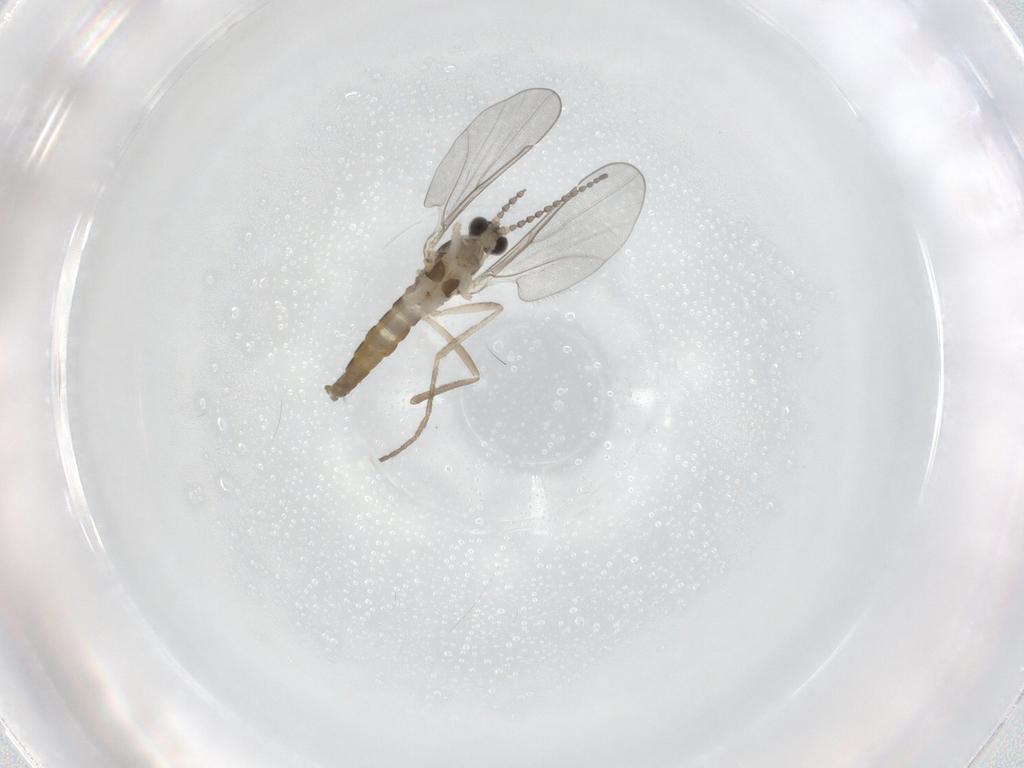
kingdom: Animalia
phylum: Arthropoda
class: Insecta
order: Diptera
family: Cecidomyiidae
